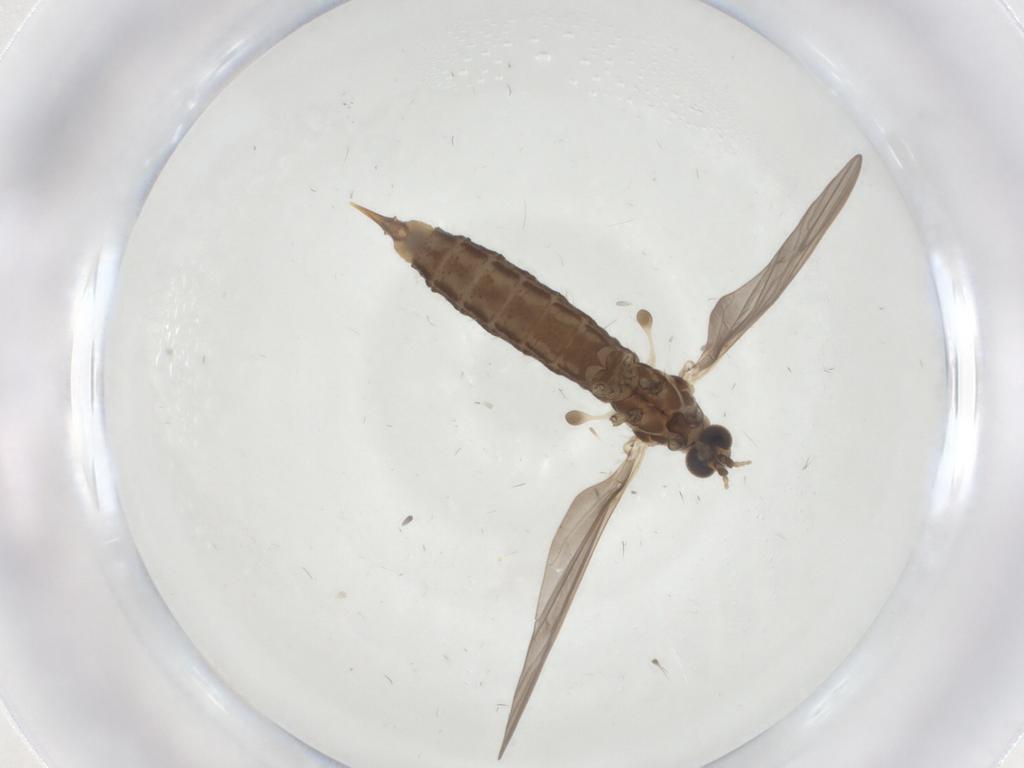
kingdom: Animalia
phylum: Arthropoda
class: Insecta
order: Diptera
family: Limoniidae
